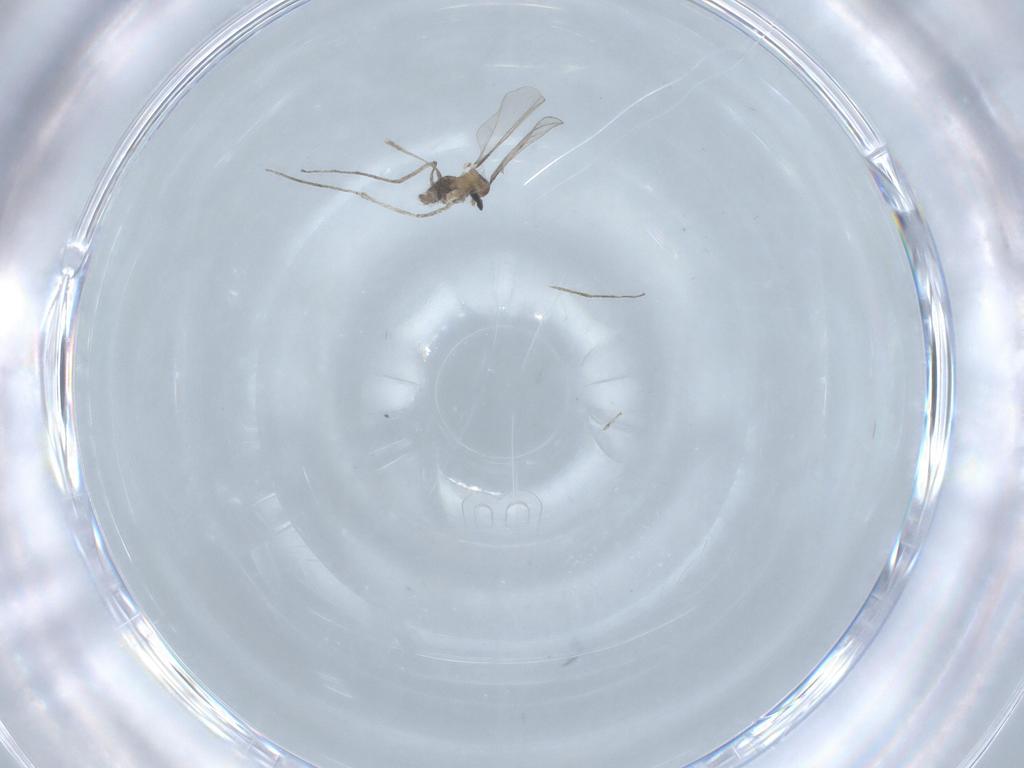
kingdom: Animalia
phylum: Arthropoda
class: Insecta
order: Diptera
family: Cecidomyiidae
